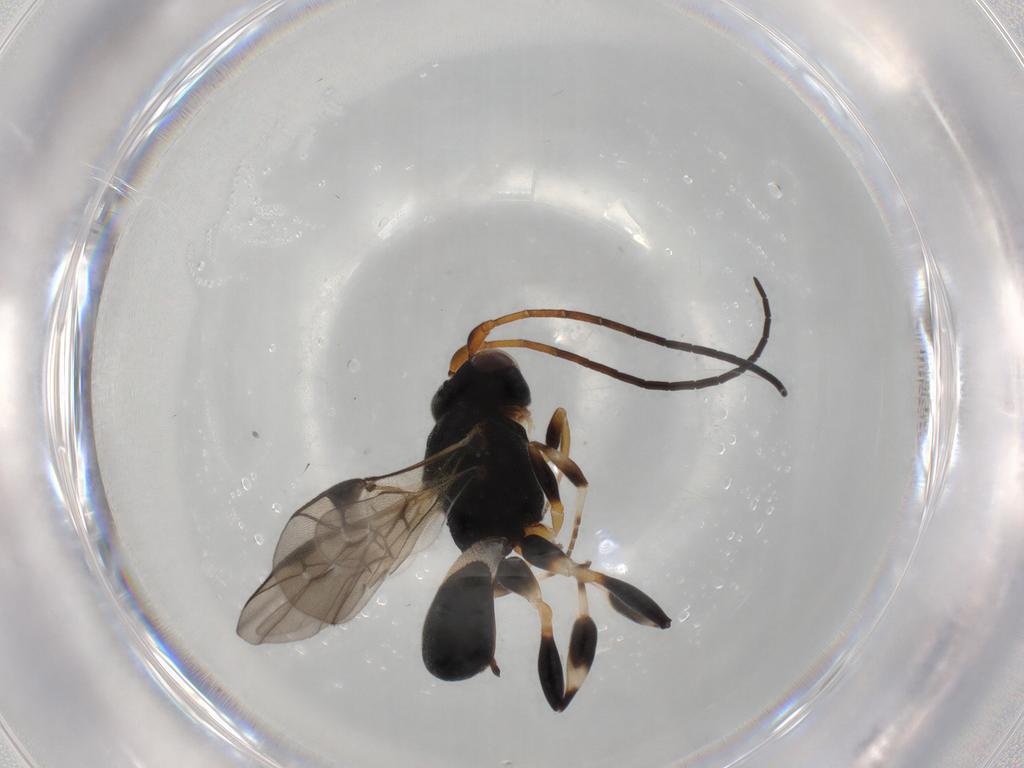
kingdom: Animalia
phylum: Arthropoda
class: Insecta
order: Hymenoptera
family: Braconidae
